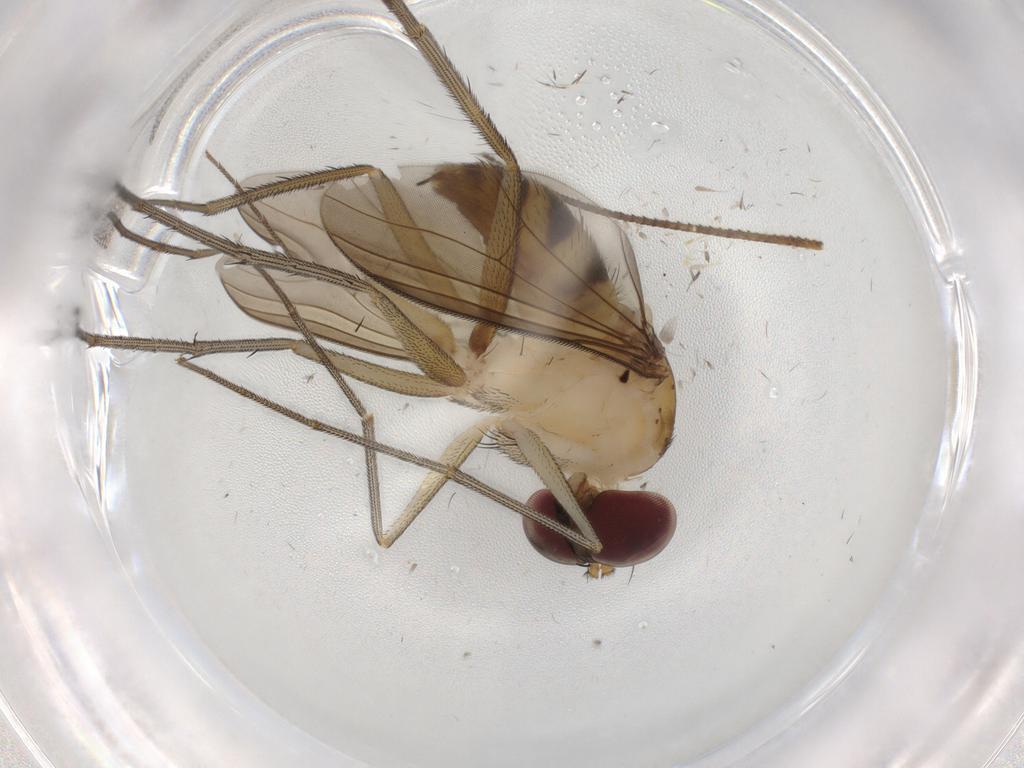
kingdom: Animalia
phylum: Arthropoda
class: Insecta
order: Diptera
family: Dolichopodidae
